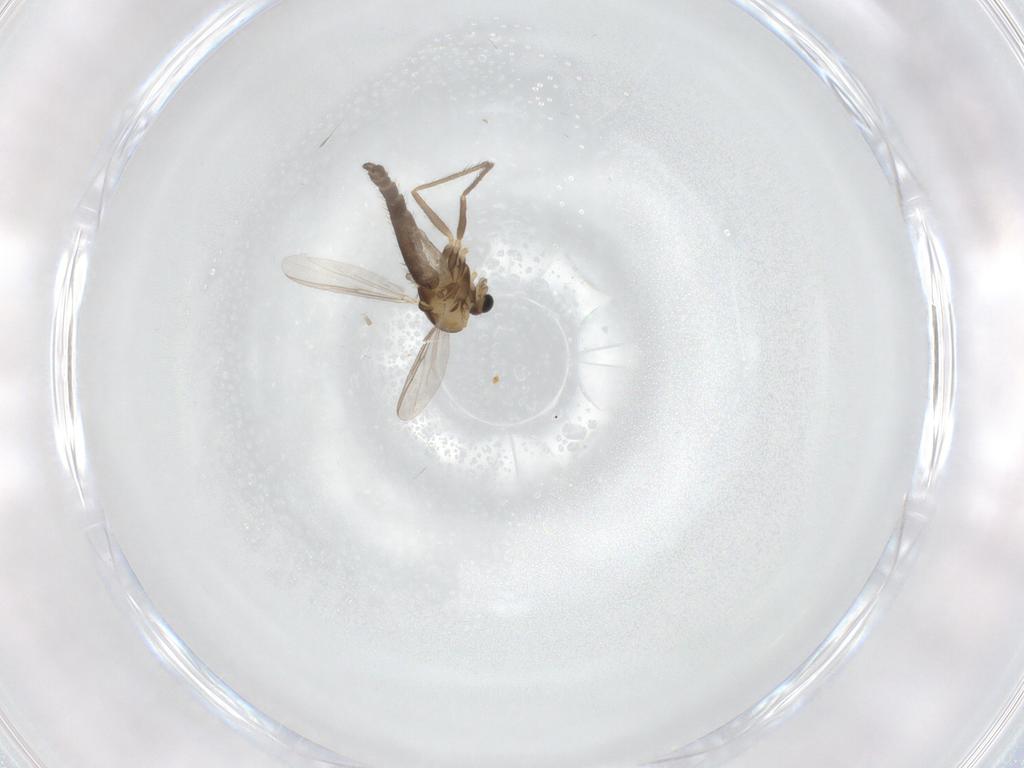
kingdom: Animalia
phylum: Arthropoda
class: Insecta
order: Diptera
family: Chironomidae
